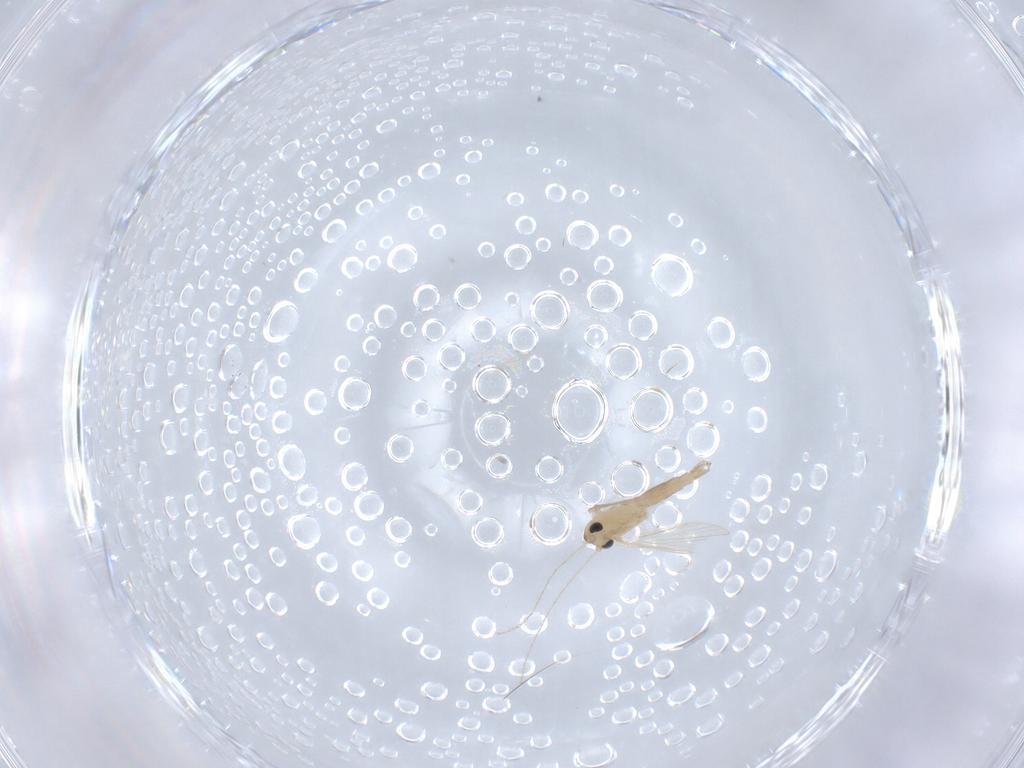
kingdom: Animalia
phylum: Arthropoda
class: Insecta
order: Diptera
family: Psychodidae
